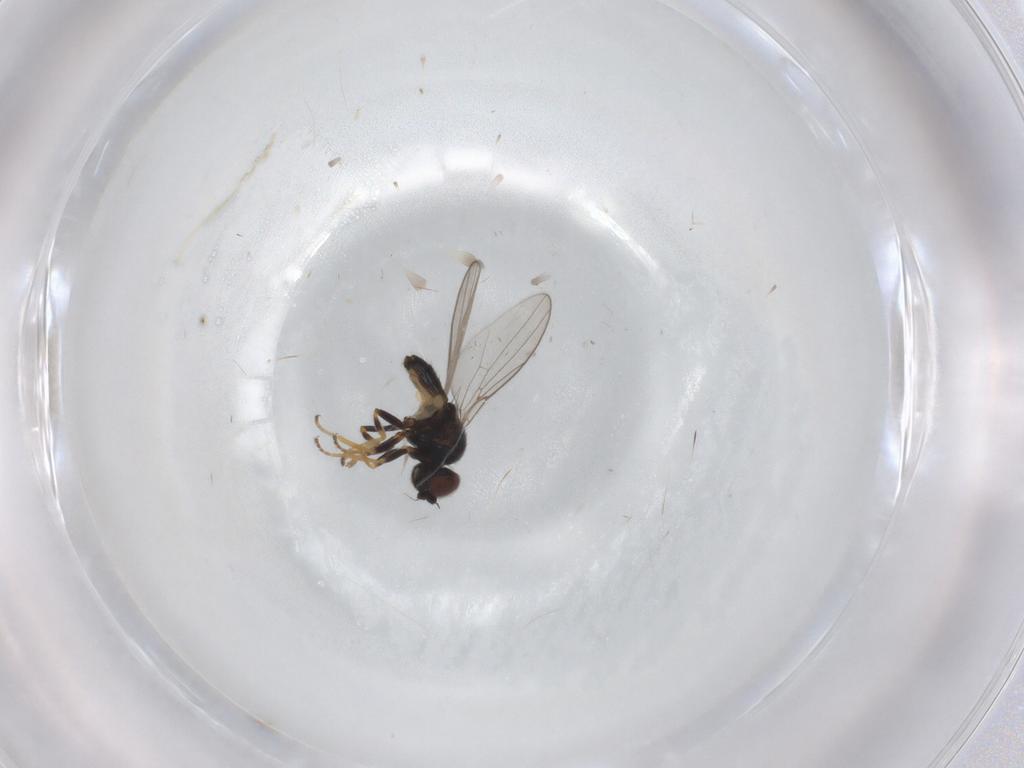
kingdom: Animalia
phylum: Arthropoda
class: Insecta
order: Diptera
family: Chloropidae
